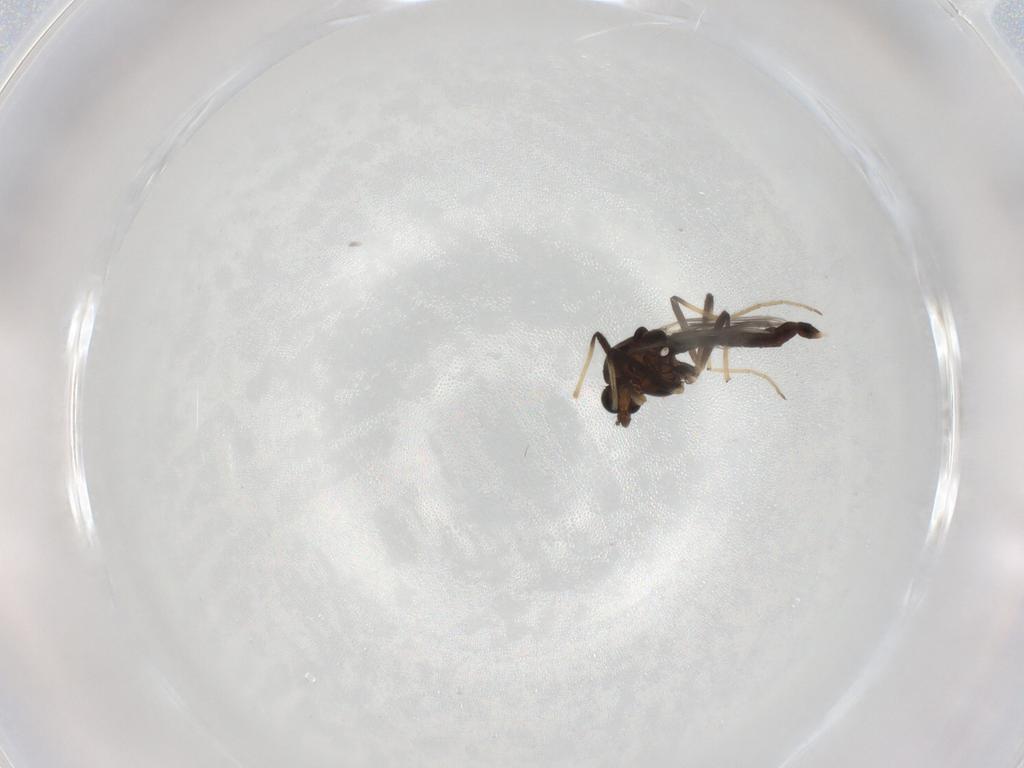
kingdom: Animalia
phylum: Arthropoda
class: Insecta
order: Diptera
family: Chironomidae
